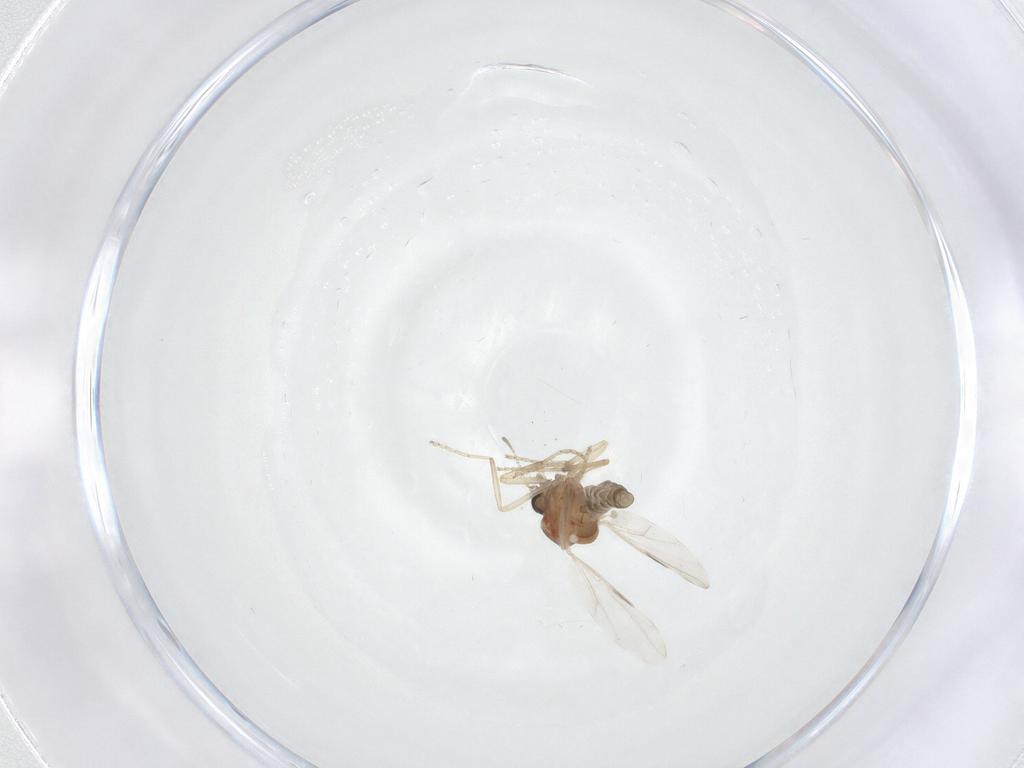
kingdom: Animalia
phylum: Arthropoda
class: Insecta
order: Diptera
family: Ceratopogonidae
